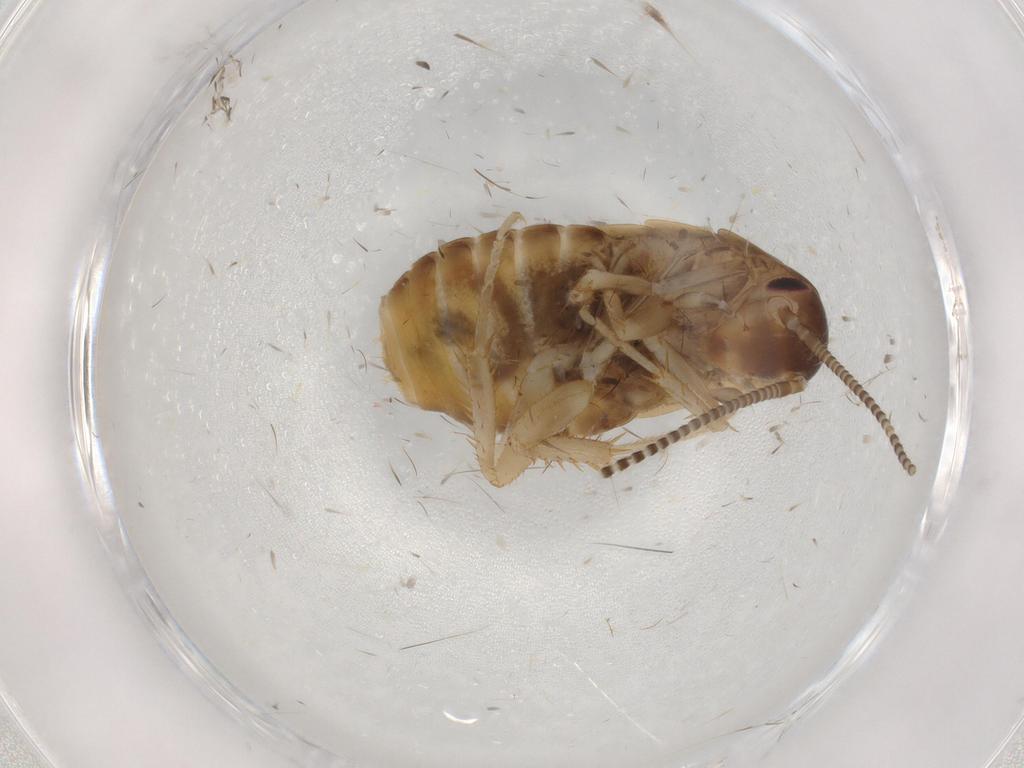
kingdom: Animalia
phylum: Arthropoda
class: Insecta
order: Blattodea
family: Ectobiidae
